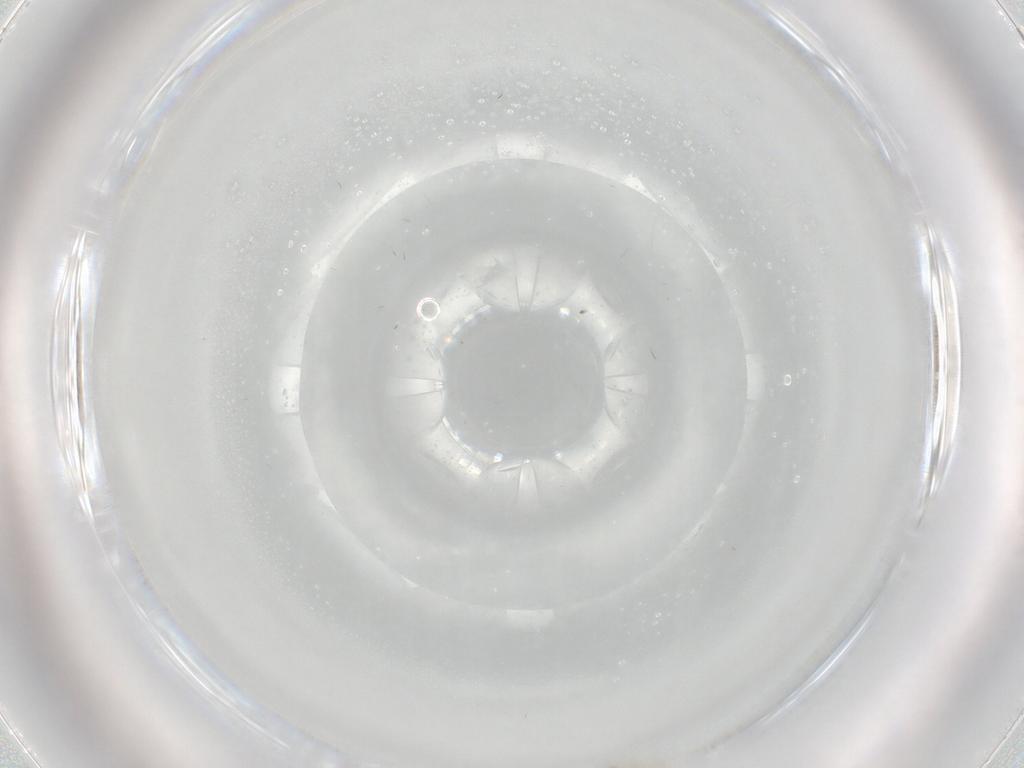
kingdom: Animalia
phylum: Arthropoda
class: Insecta
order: Diptera
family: Cecidomyiidae
